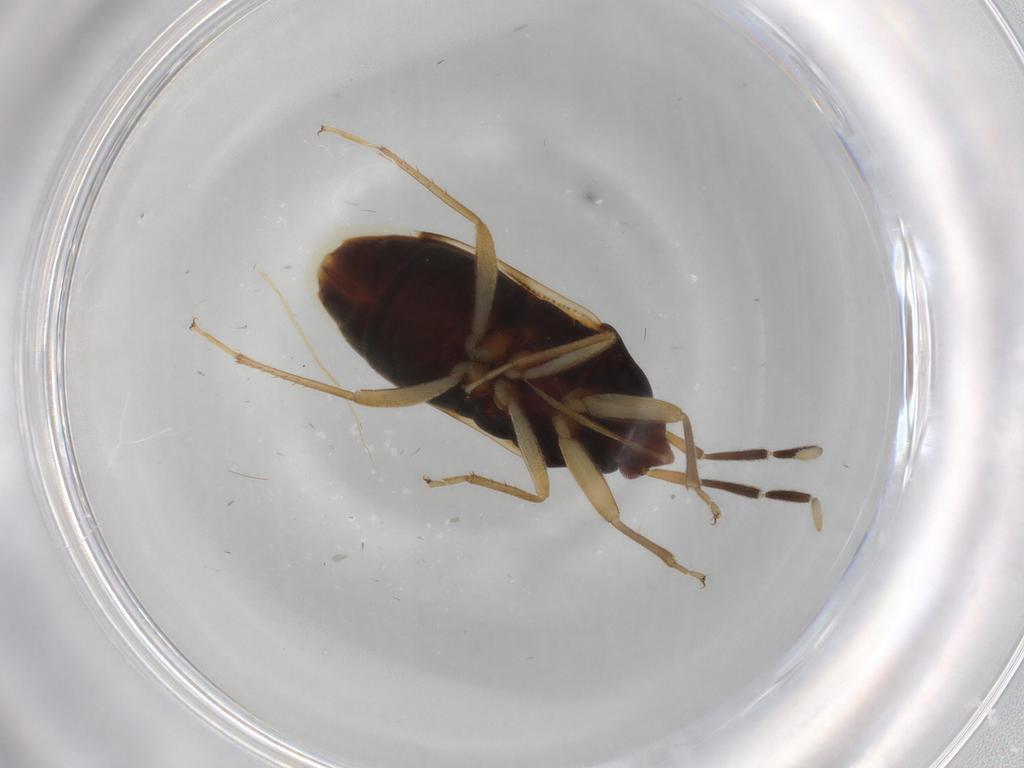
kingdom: Animalia
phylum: Arthropoda
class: Insecta
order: Hemiptera
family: Rhyparochromidae
